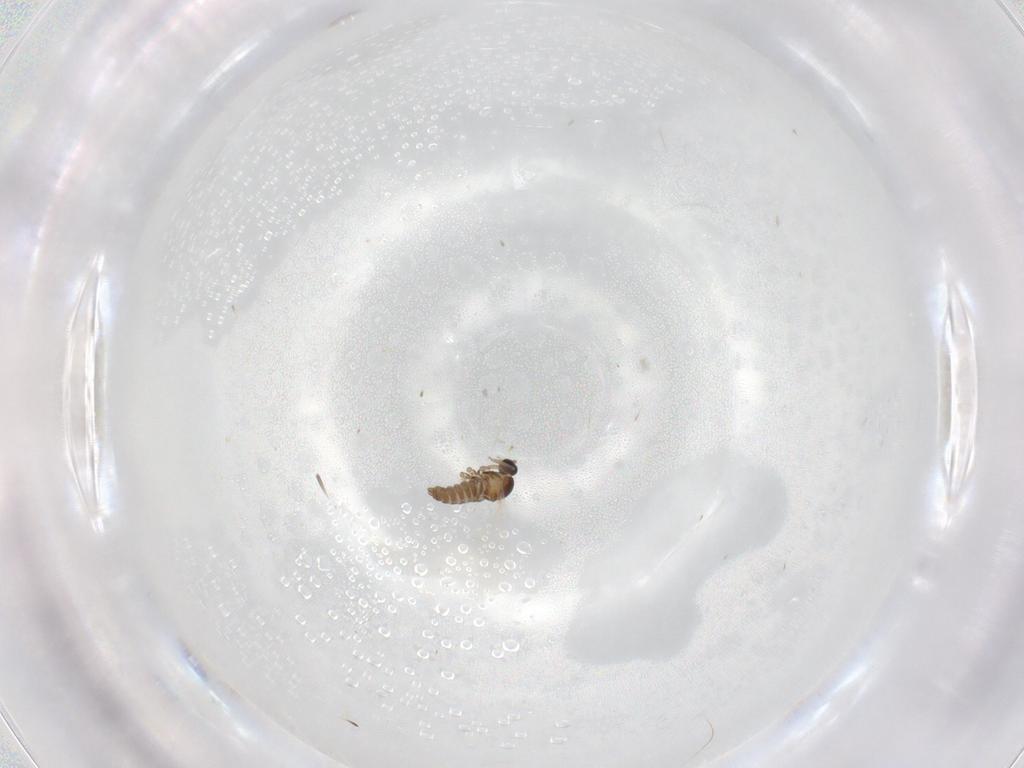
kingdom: Animalia
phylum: Arthropoda
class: Insecta
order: Diptera
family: Cecidomyiidae
